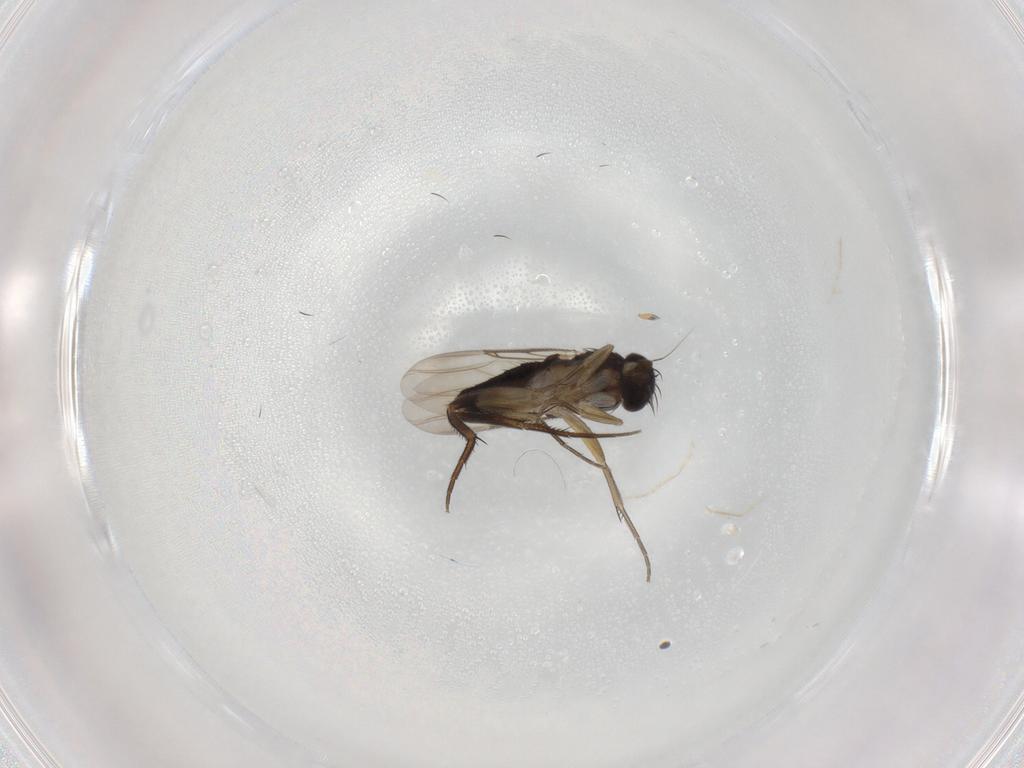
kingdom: Animalia
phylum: Arthropoda
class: Insecta
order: Diptera
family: Phoridae
